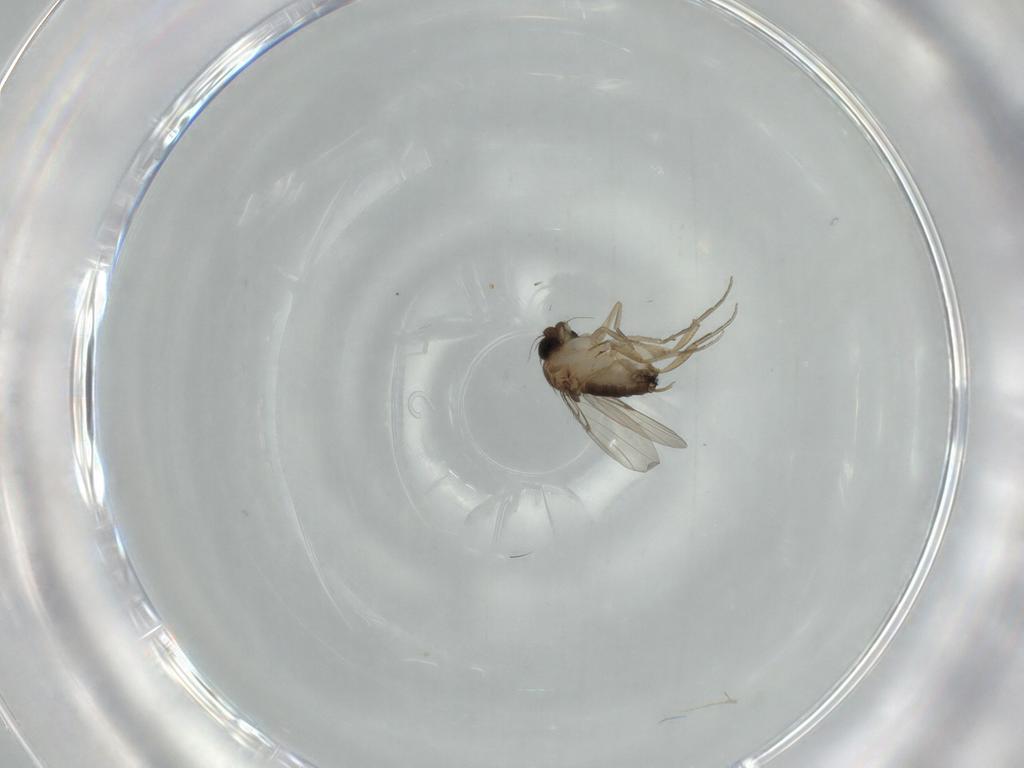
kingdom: Animalia
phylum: Arthropoda
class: Insecta
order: Diptera
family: Phoridae
